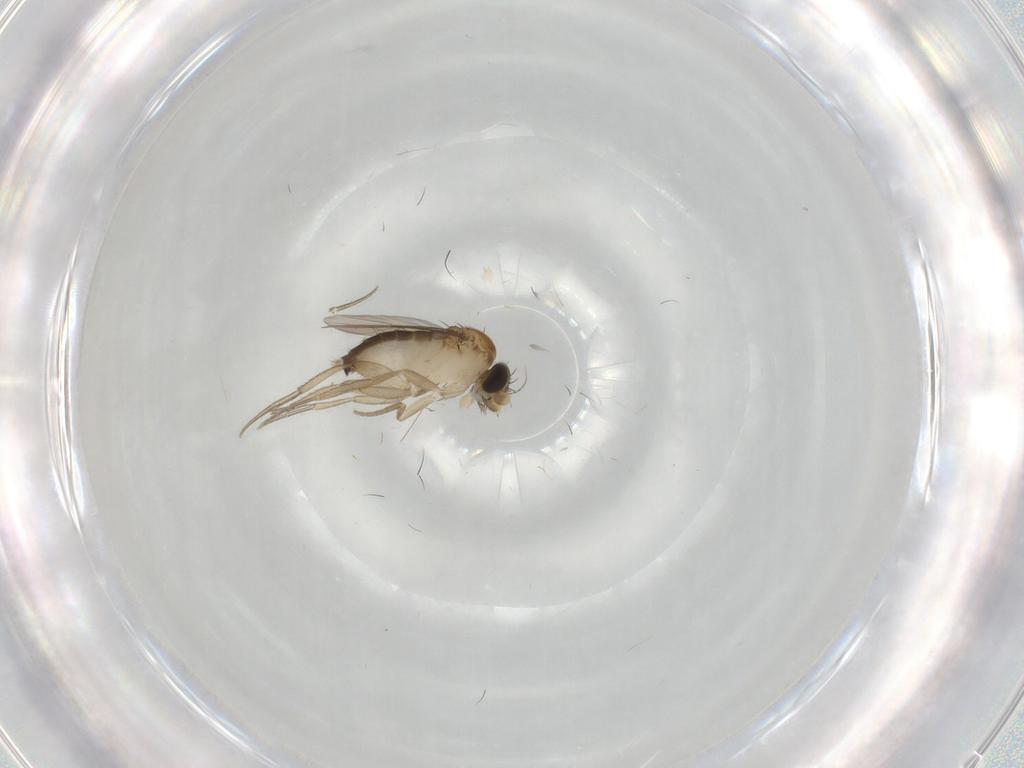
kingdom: Animalia
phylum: Arthropoda
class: Insecta
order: Diptera
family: Phoridae
